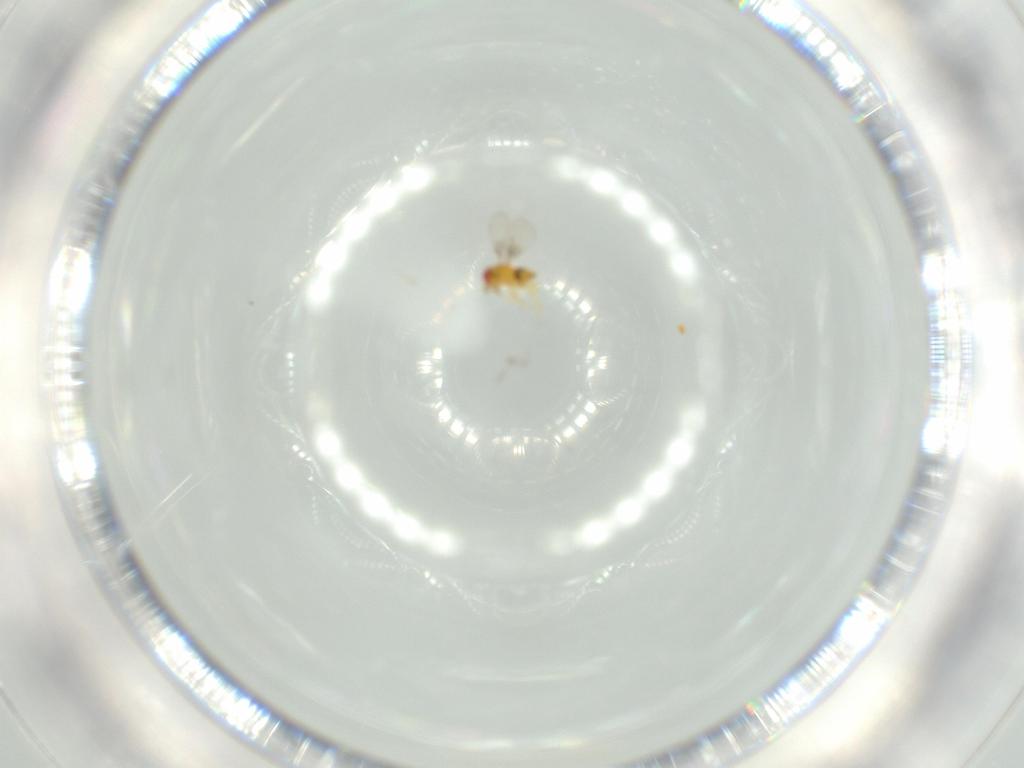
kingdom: Animalia
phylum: Arthropoda
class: Insecta
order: Hymenoptera
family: Trichogrammatidae
